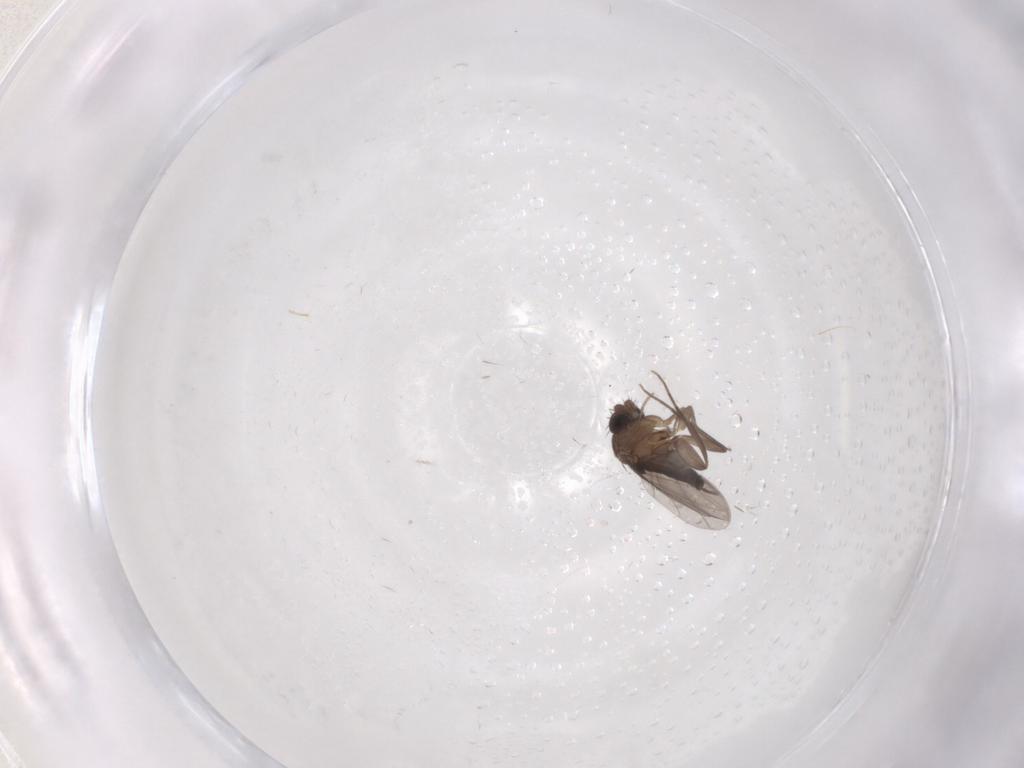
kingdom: Animalia
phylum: Arthropoda
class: Insecta
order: Diptera
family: Phoridae
